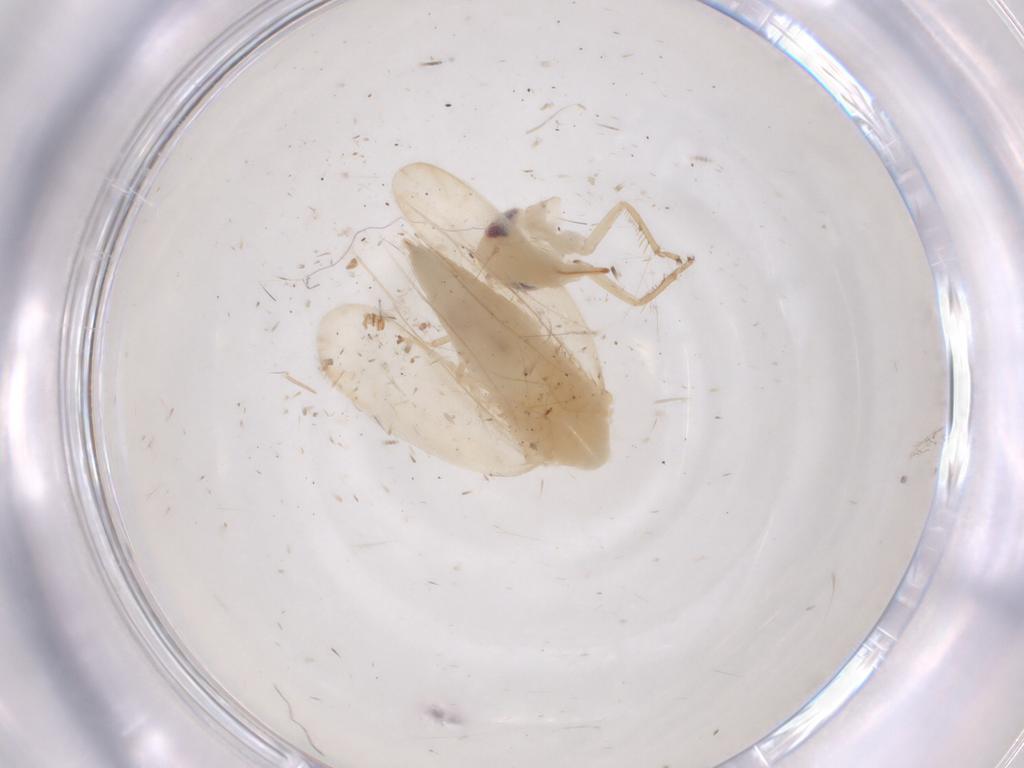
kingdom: Animalia
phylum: Arthropoda
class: Insecta
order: Hemiptera
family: Cicadellidae
